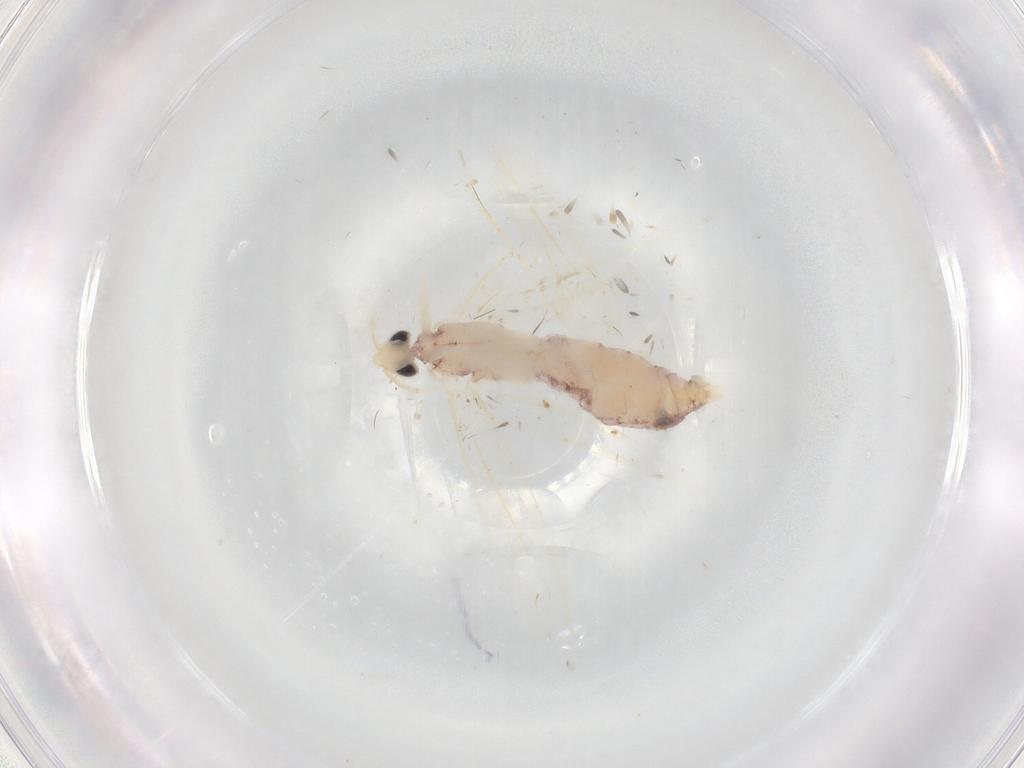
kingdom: Animalia
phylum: Arthropoda
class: Insecta
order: Diptera
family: Phoridae
